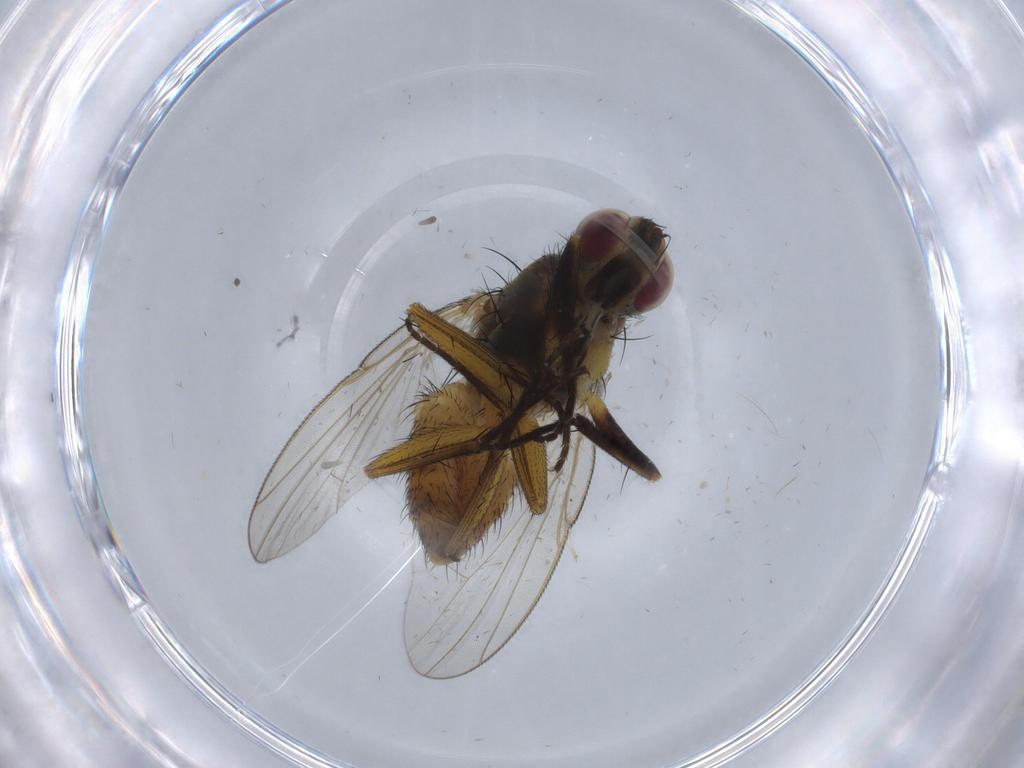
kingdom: Animalia
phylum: Arthropoda
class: Insecta
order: Diptera
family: Muscidae
